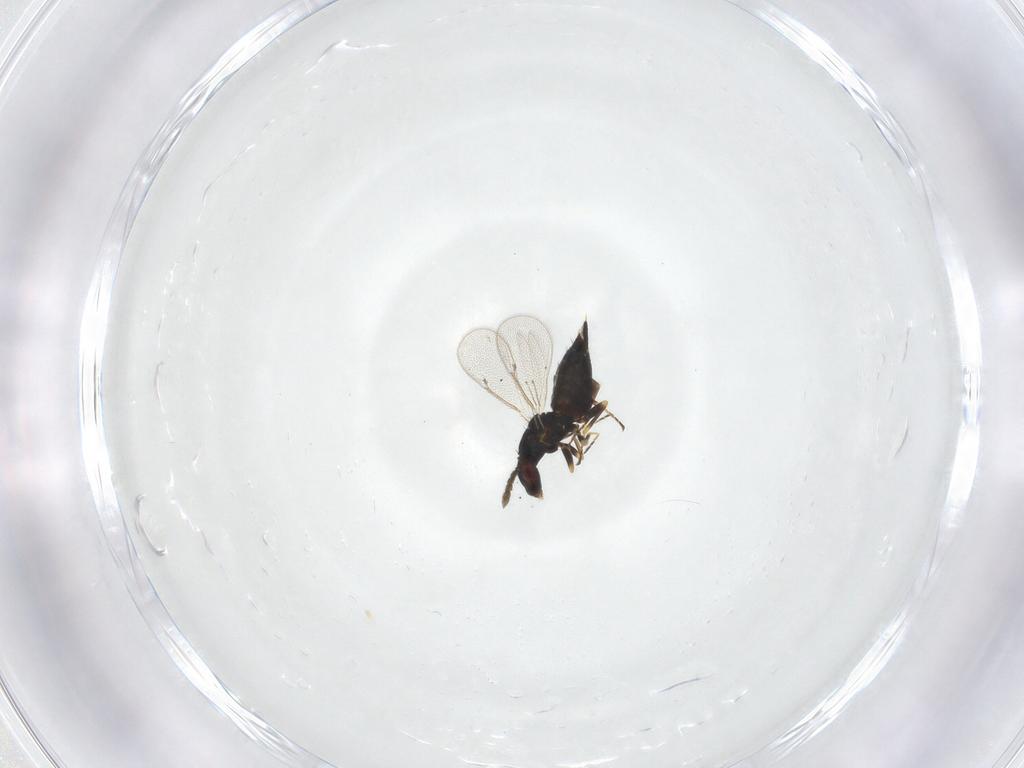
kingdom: Animalia
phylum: Arthropoda
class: Insecta
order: Hymenoptera
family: Eulophidae
